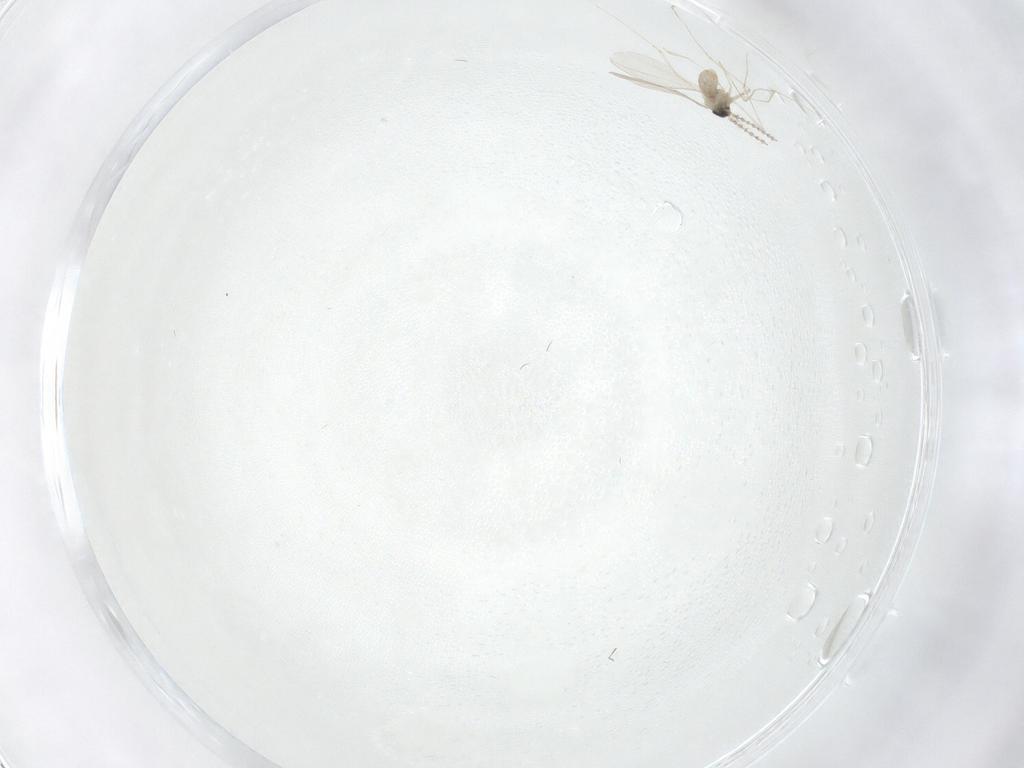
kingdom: Animalia
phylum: Arthropoda
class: Insecta
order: Diptera
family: Cecidomyiidae
